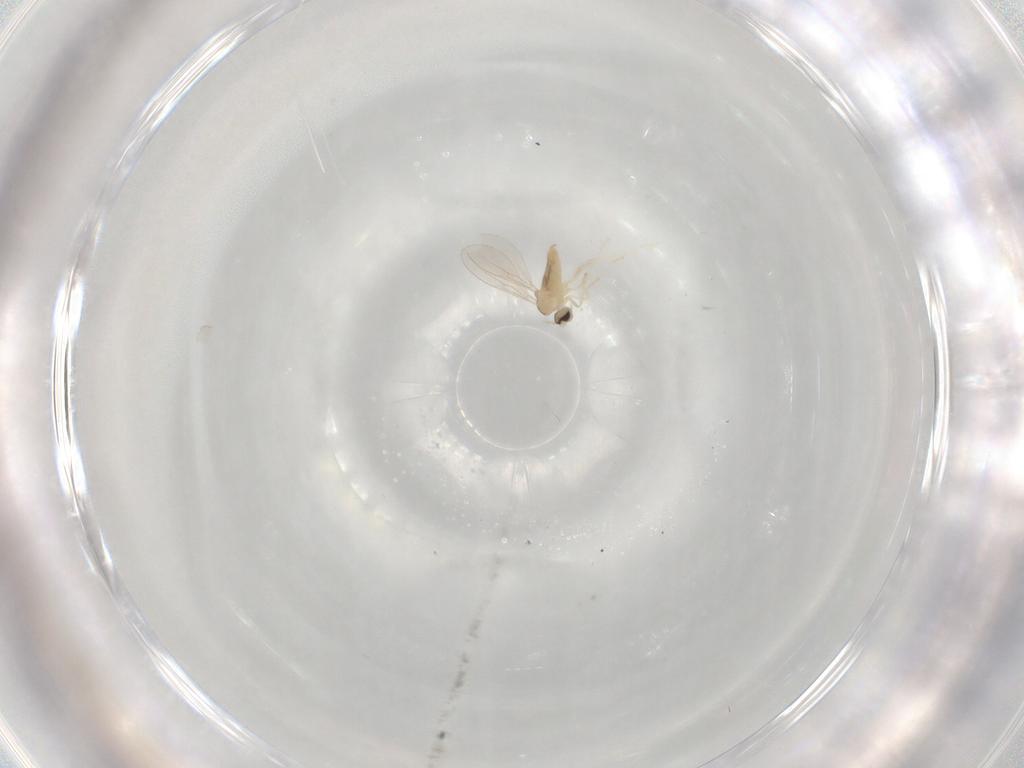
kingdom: Animalia
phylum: Arthropoda
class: Insecta
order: Diptera
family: Cecidomyiidae
